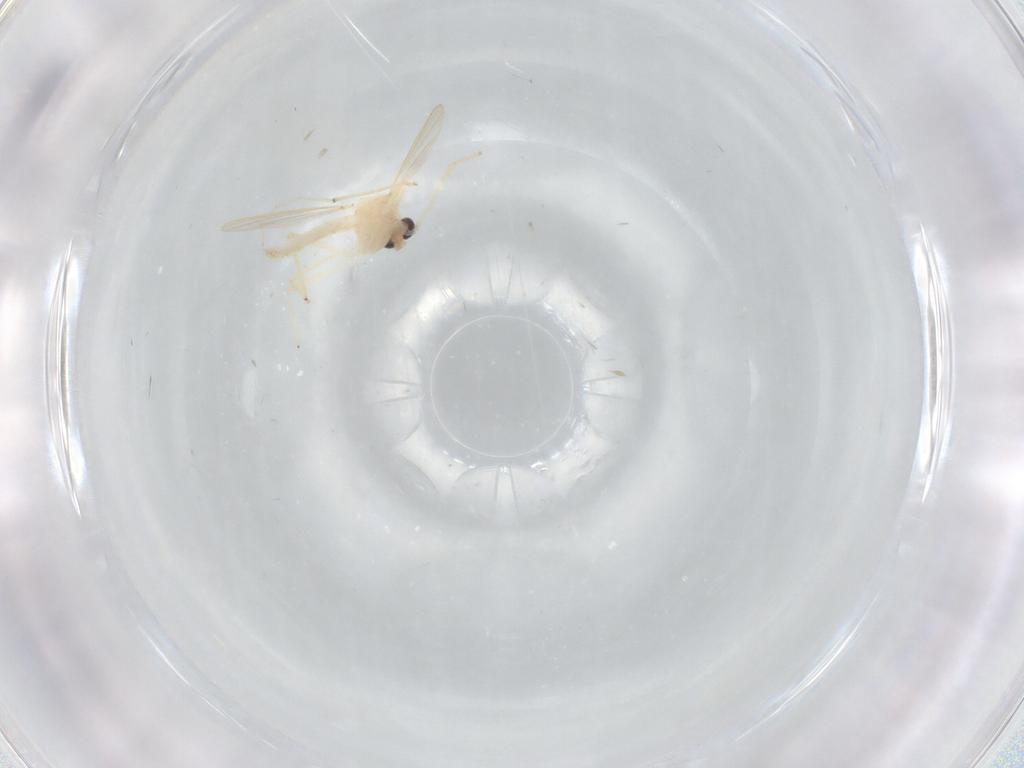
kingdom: Animalia
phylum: Arthropoda
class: Insecta
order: Diptera
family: Chironomidae
